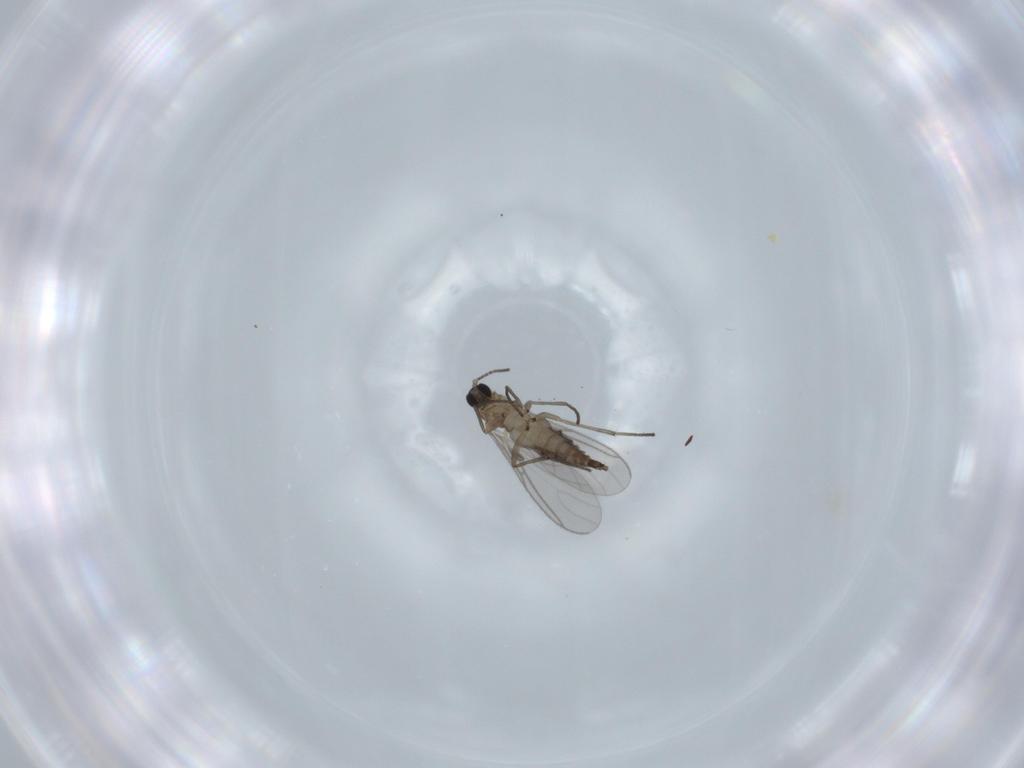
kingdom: Animalia
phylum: Arthropoda
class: Insecta
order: Diptera
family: Sciaridae
